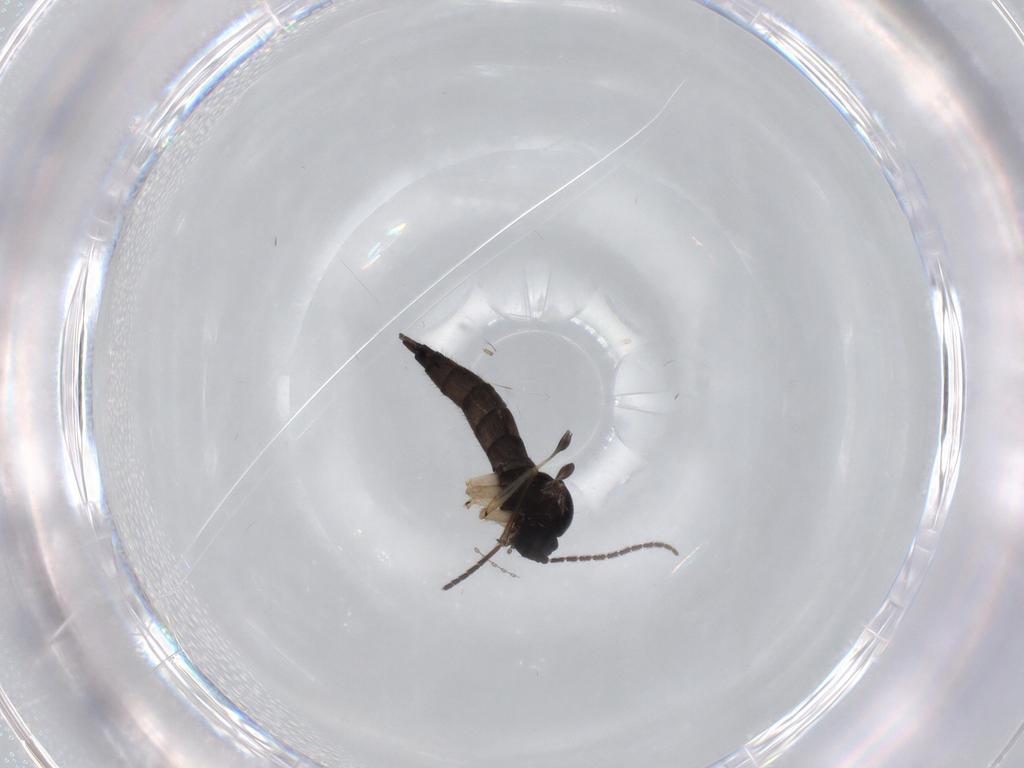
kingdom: Animalia
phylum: Arthropoda
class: Insecta
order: Diptera
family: Sciaridae
